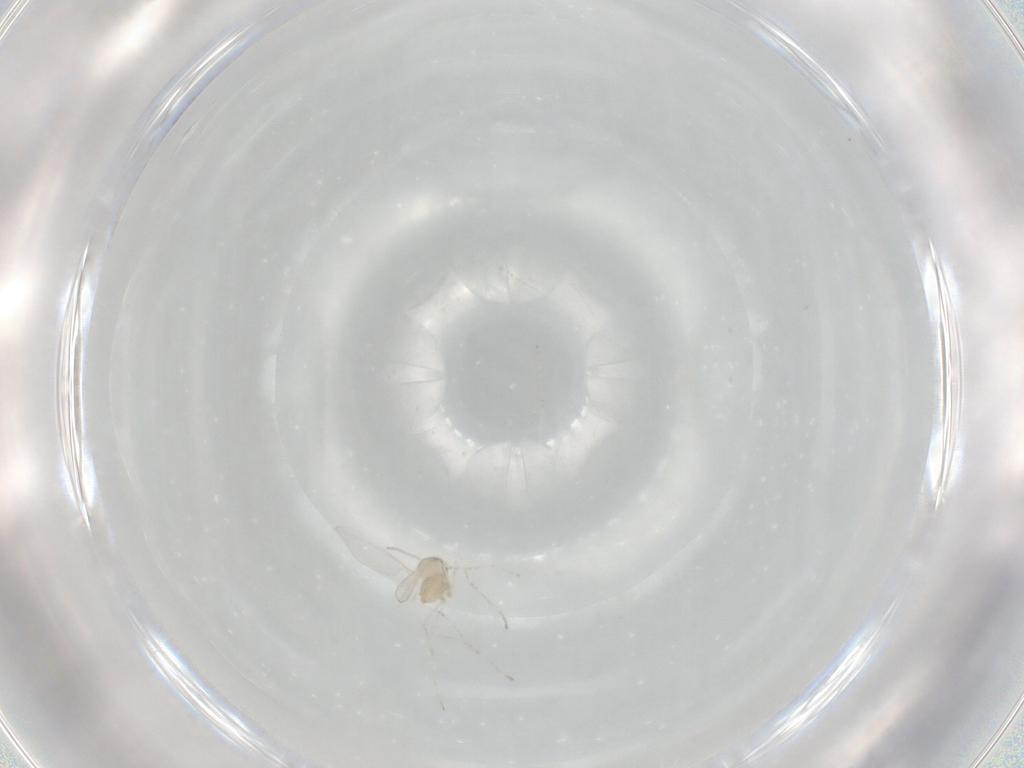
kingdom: Animalia
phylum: Arthropoda
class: Insecta
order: Diptera
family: Cecidomyiidae
